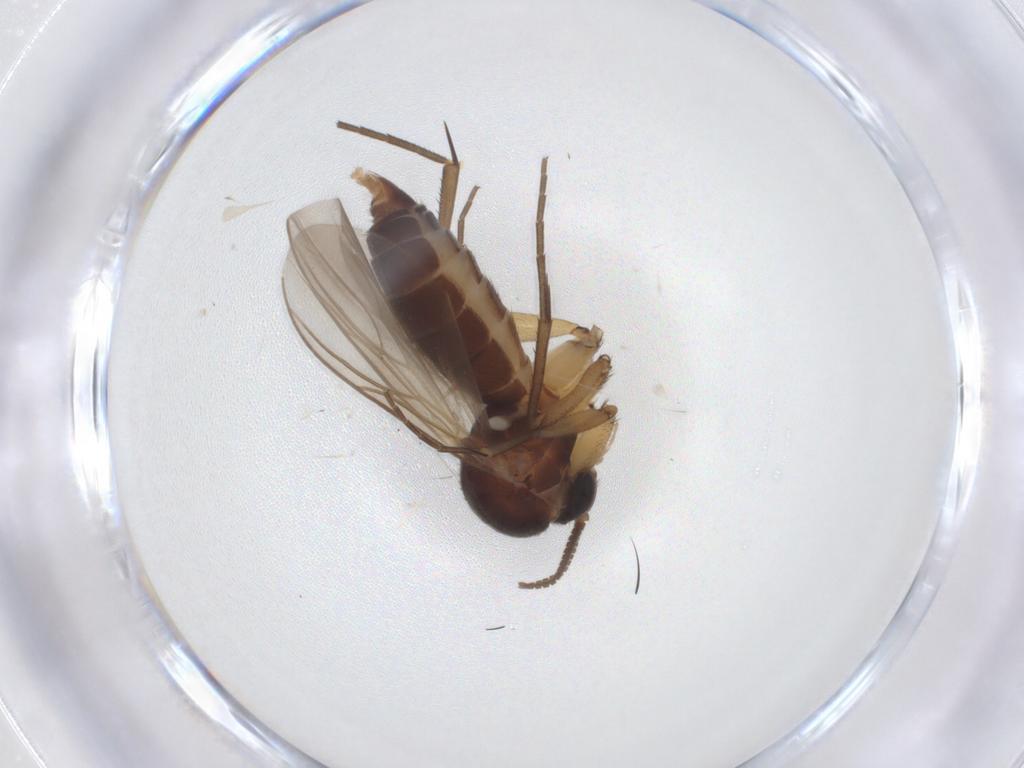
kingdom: Animalia
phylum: Arthropoda
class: Insecta
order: Diptera
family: Mycetophilidae
